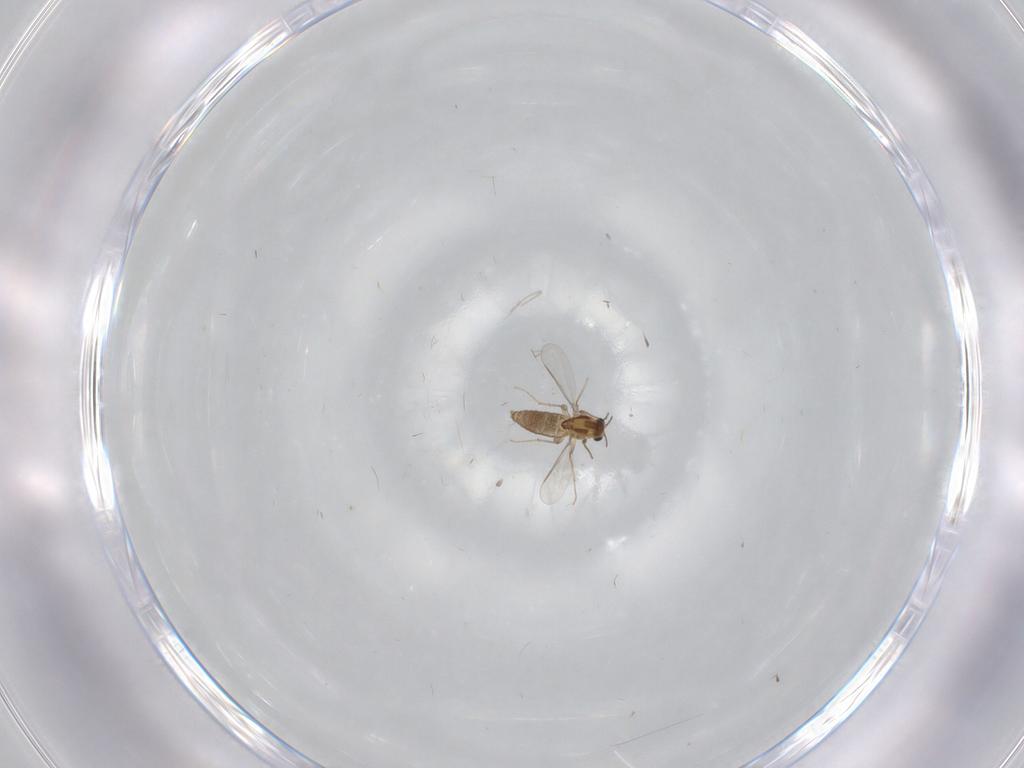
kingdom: Animalia
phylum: Arthropoda
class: Insecta
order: Diptera
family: Chironomidae
